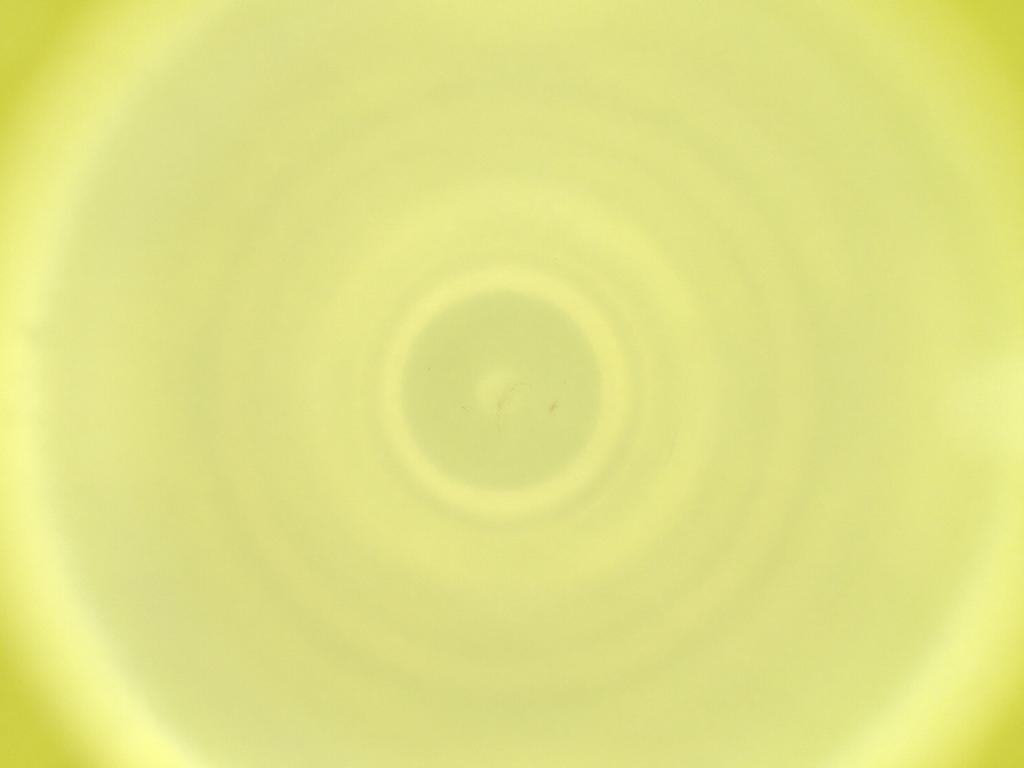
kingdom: Animalia
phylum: Arthropoda
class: Insecta
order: Diptera
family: Cecidomyiidae
